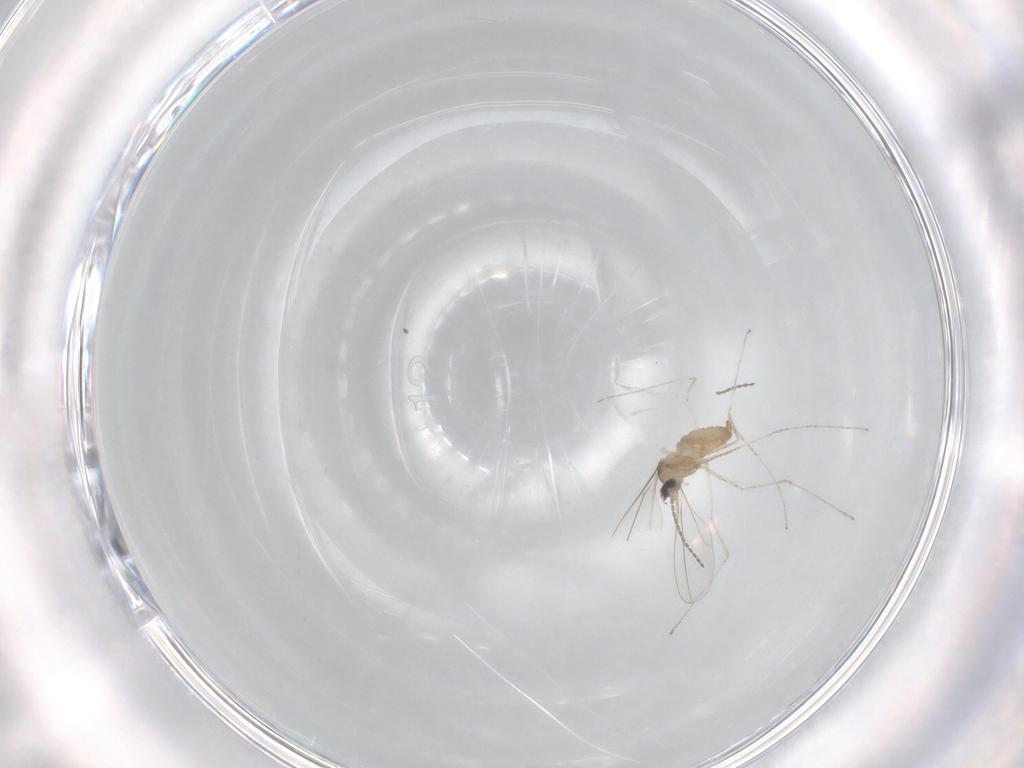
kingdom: Animalia
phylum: Arthropoda
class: Insecta
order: Diptera
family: Cecidomyiidae
